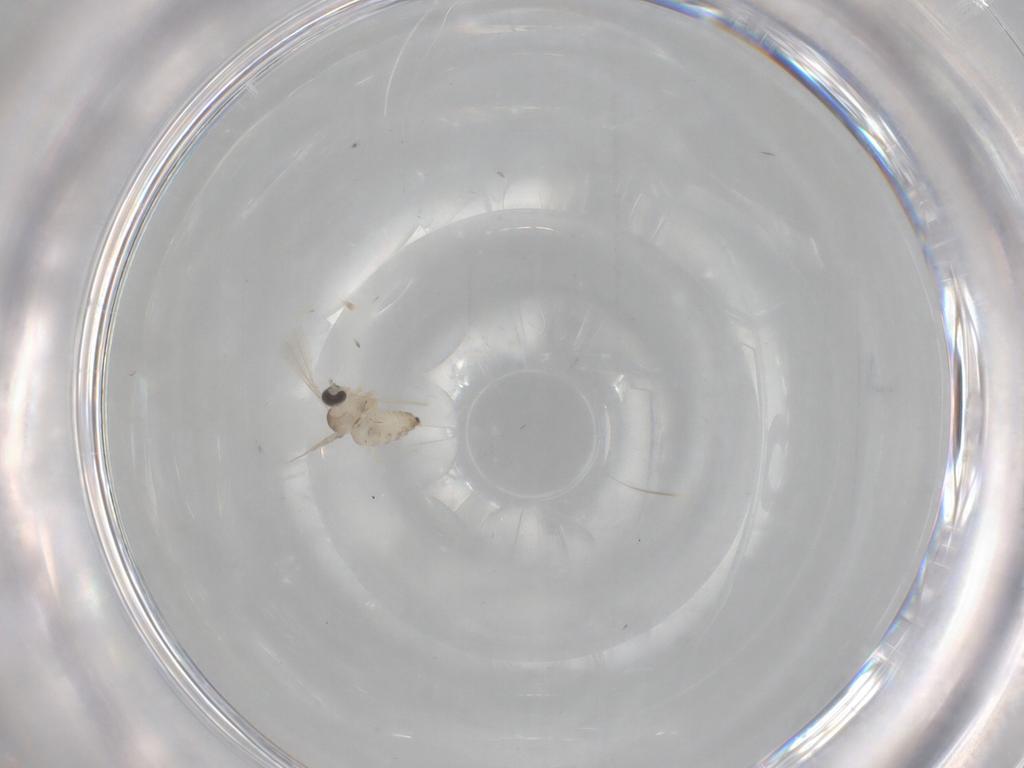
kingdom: Animalia
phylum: Arthropoda
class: Insecta
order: Diptera
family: Cecidomyiidae
